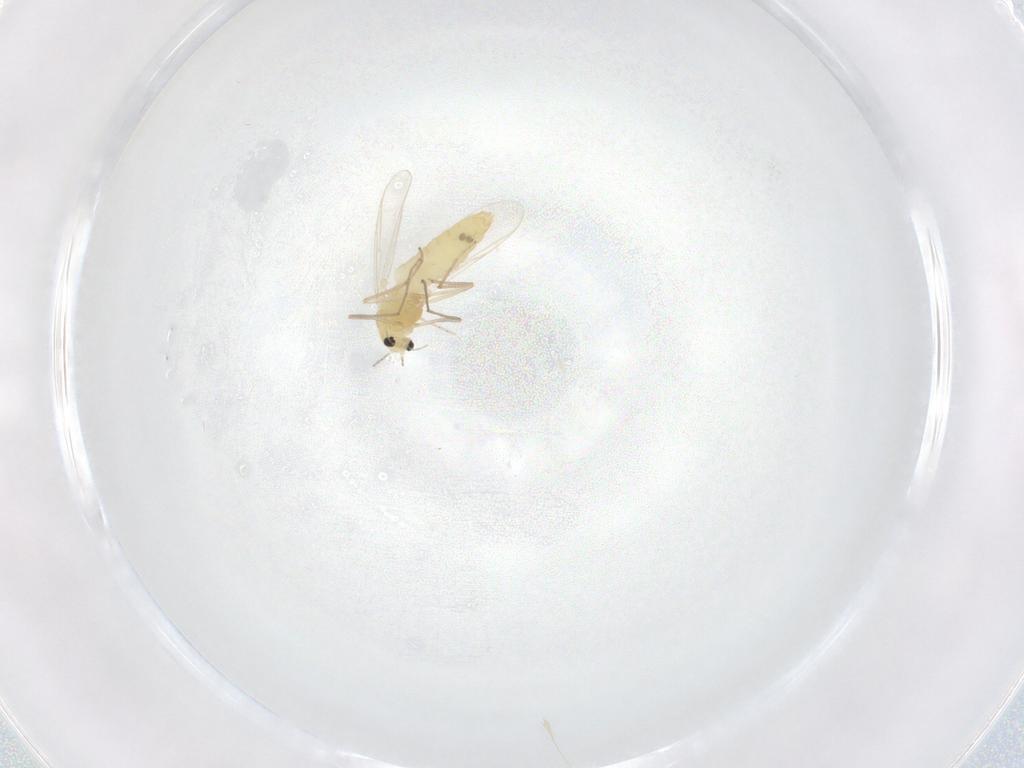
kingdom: Animalia
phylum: Arthropoda
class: Insecta
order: Diptera
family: Chironomidae
